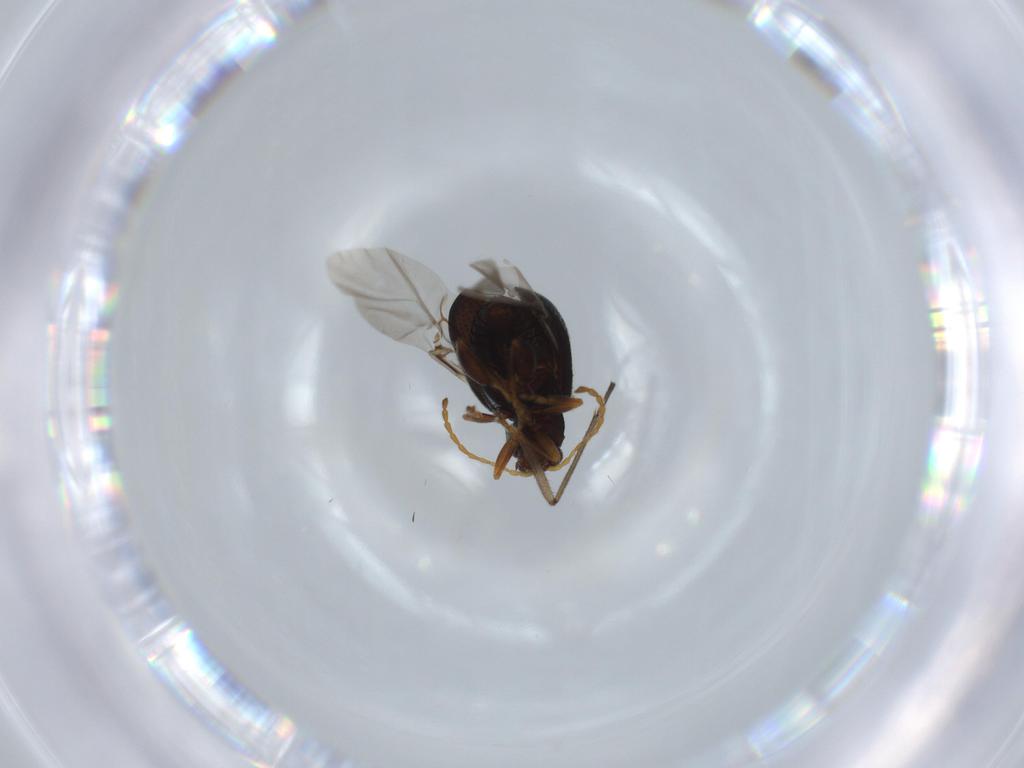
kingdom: Animalia
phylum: Arthropoda
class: Insecta
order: Coleoptera
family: Chrysomelidae
